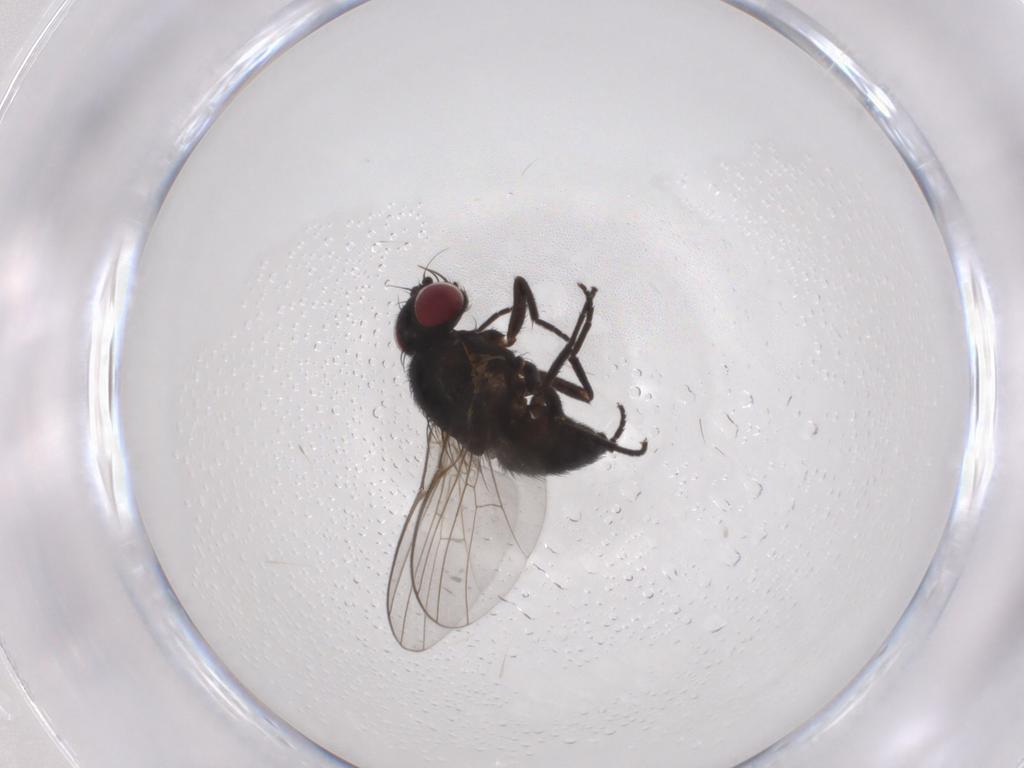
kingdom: Animalia
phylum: Arthropoda
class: Insecta
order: Diptera
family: Agromyzidae
